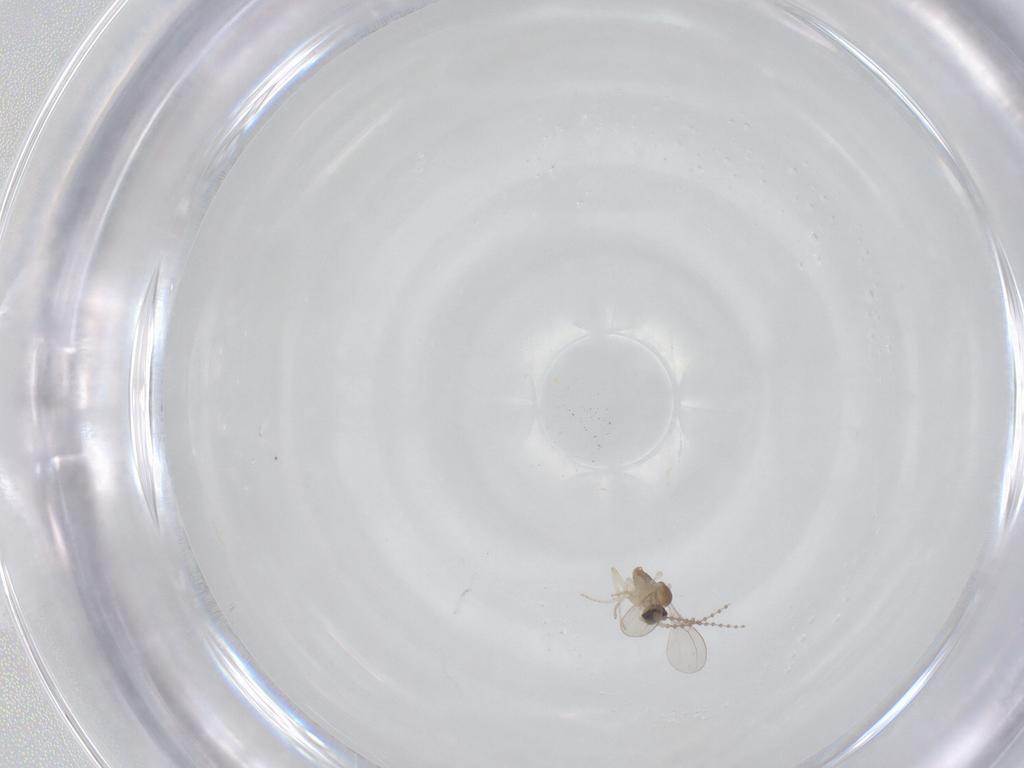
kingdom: Animalia
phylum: Arthropoda
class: Insecta
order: Diptera
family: Cecidomyiidae
